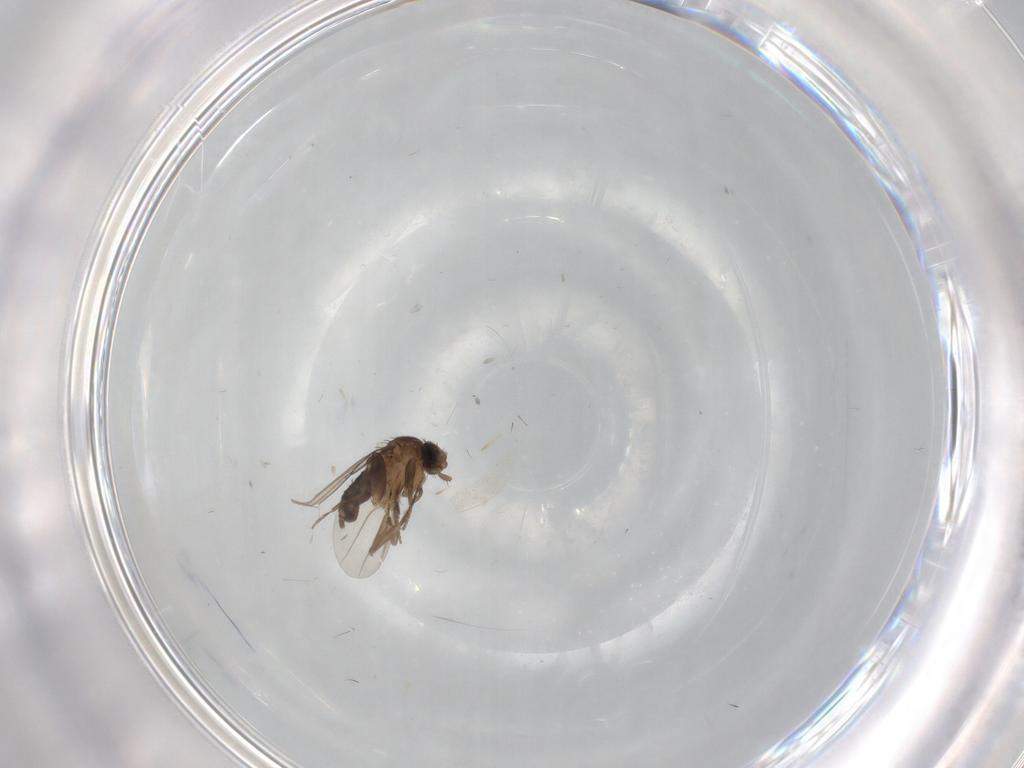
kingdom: Animalia
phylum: Arthropoda
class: Insecta
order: Diptera
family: Phoridae
